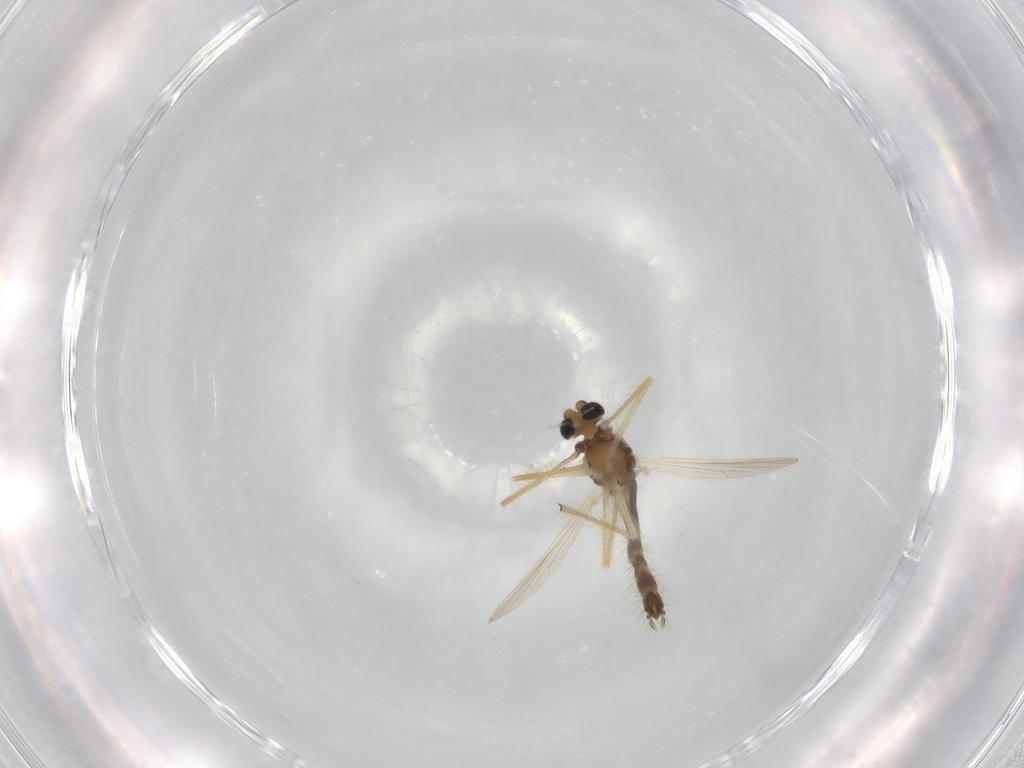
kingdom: Animalia
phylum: Arthropoda
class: Insecta
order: Diptera
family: Chironomidae
